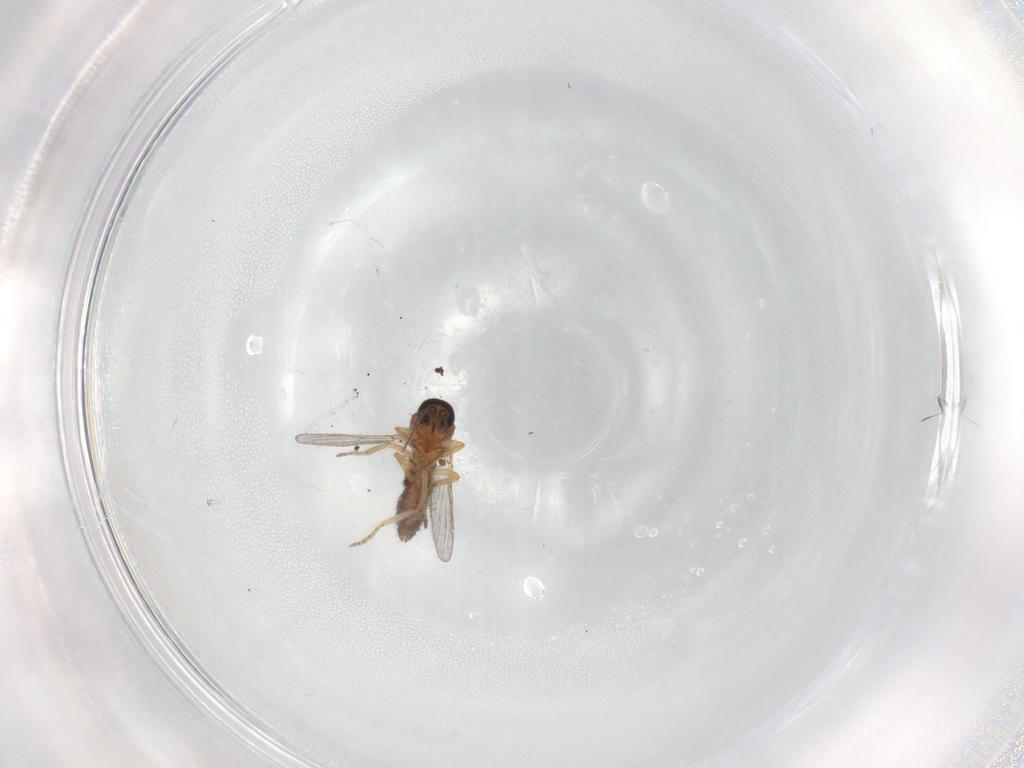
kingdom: Animalia
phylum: Arthropoda
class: Insecta
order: Diptera
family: Cecidomyiidae
